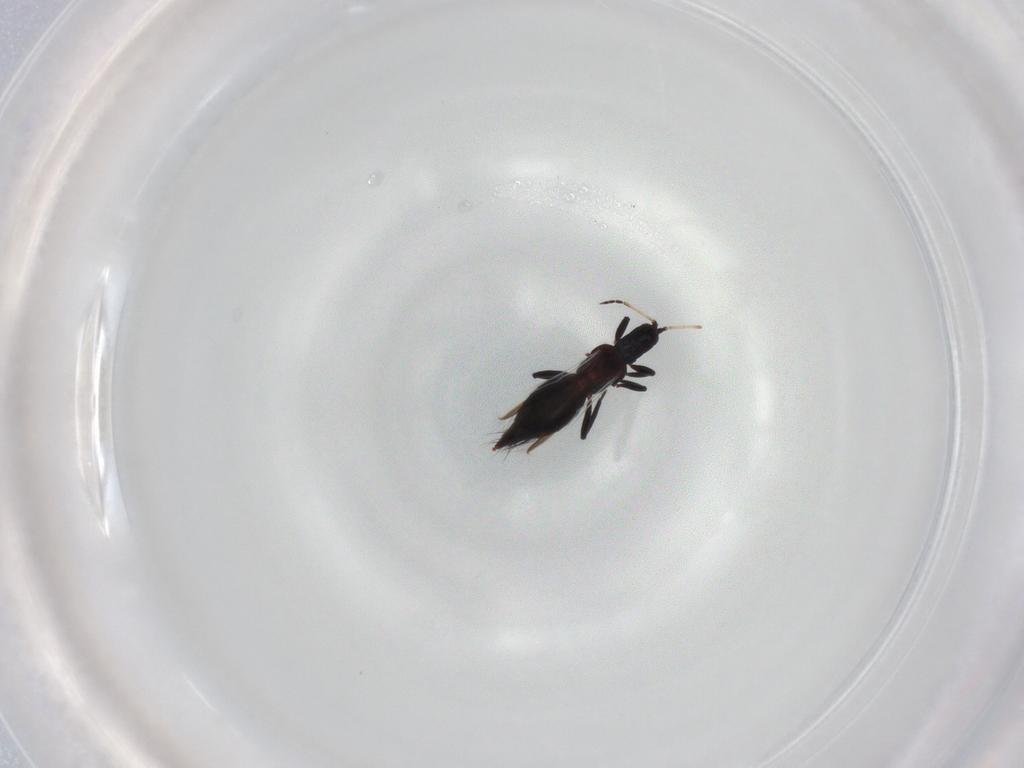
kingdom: Animalia
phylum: Arthropoda
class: Insecta
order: Thysanoptera
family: Aeolothripidae
